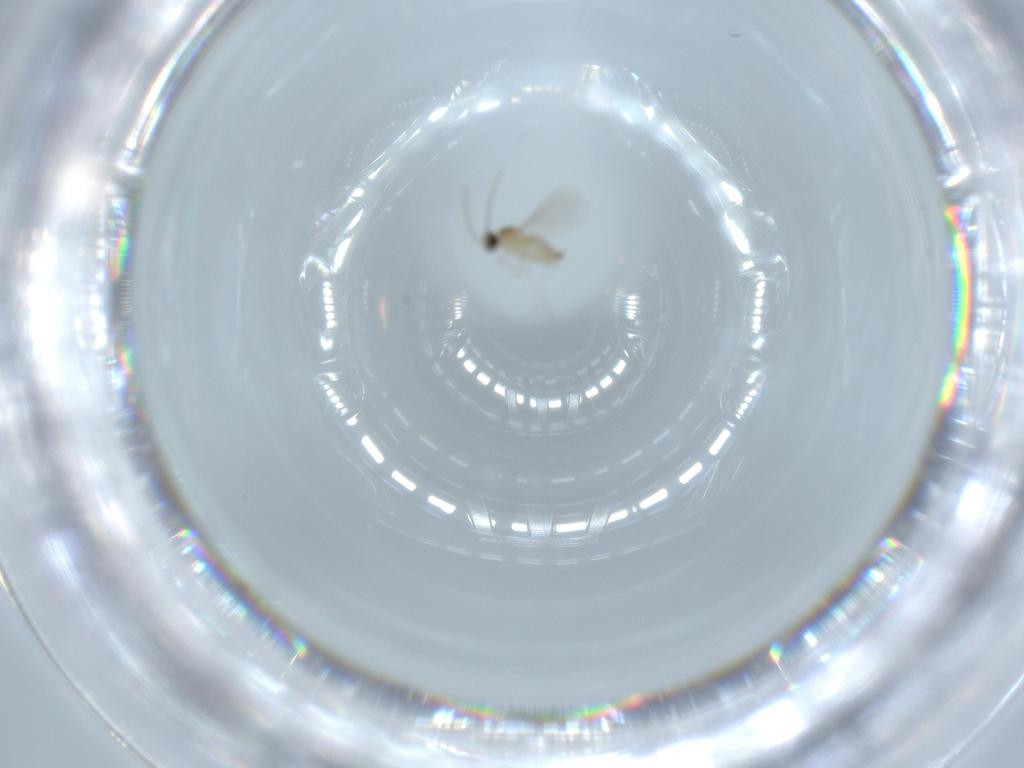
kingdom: Animalia
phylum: Arthropoda
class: Insecta
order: Diptera
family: Cecidomyiidae
